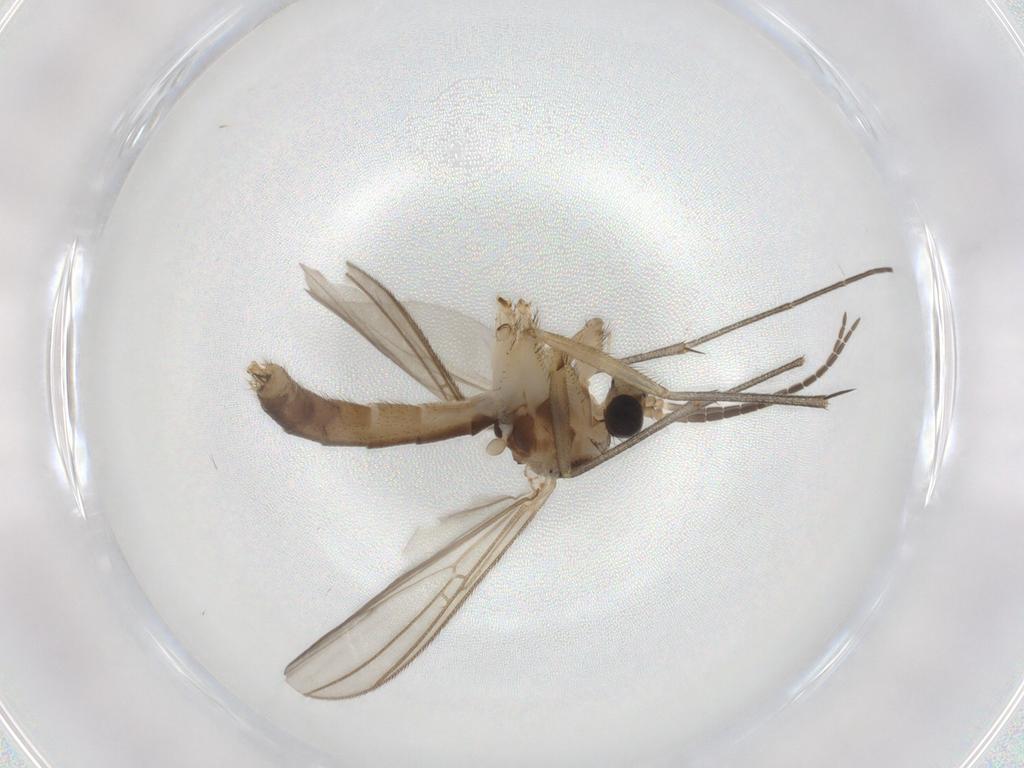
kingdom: Animalia
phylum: Arthropoda
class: Insecta
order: Diptera
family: Mycetophilidae
